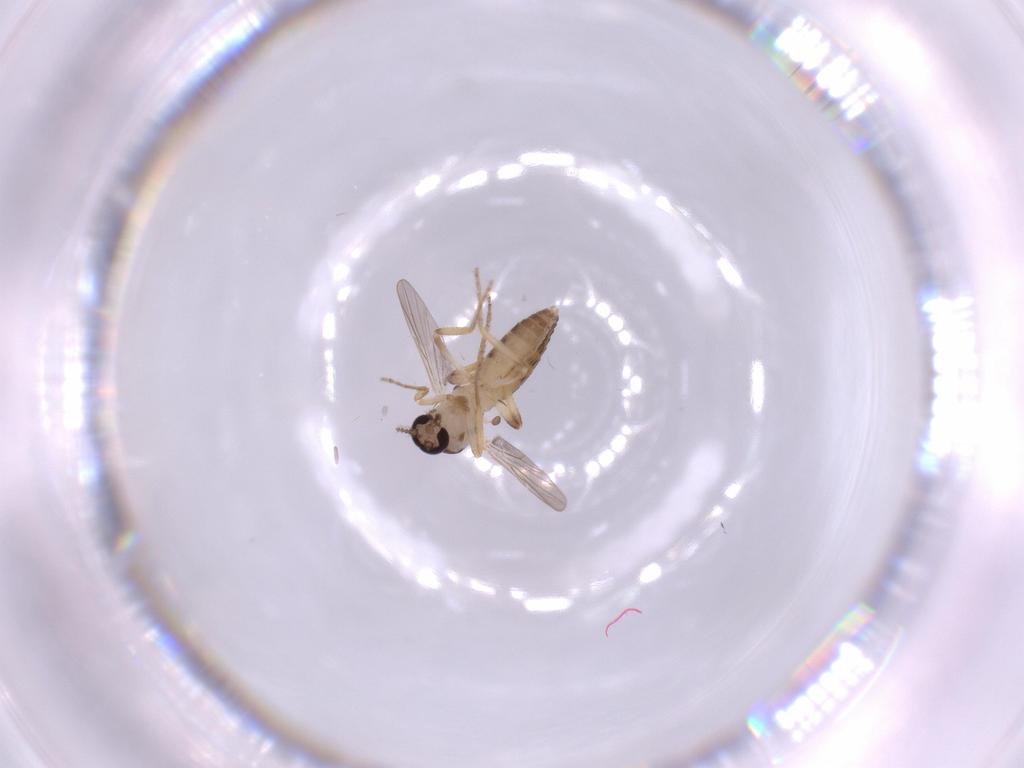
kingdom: Animalia
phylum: Arthropoda
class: Insecta
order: Diptera
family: Ceratopogonidae
